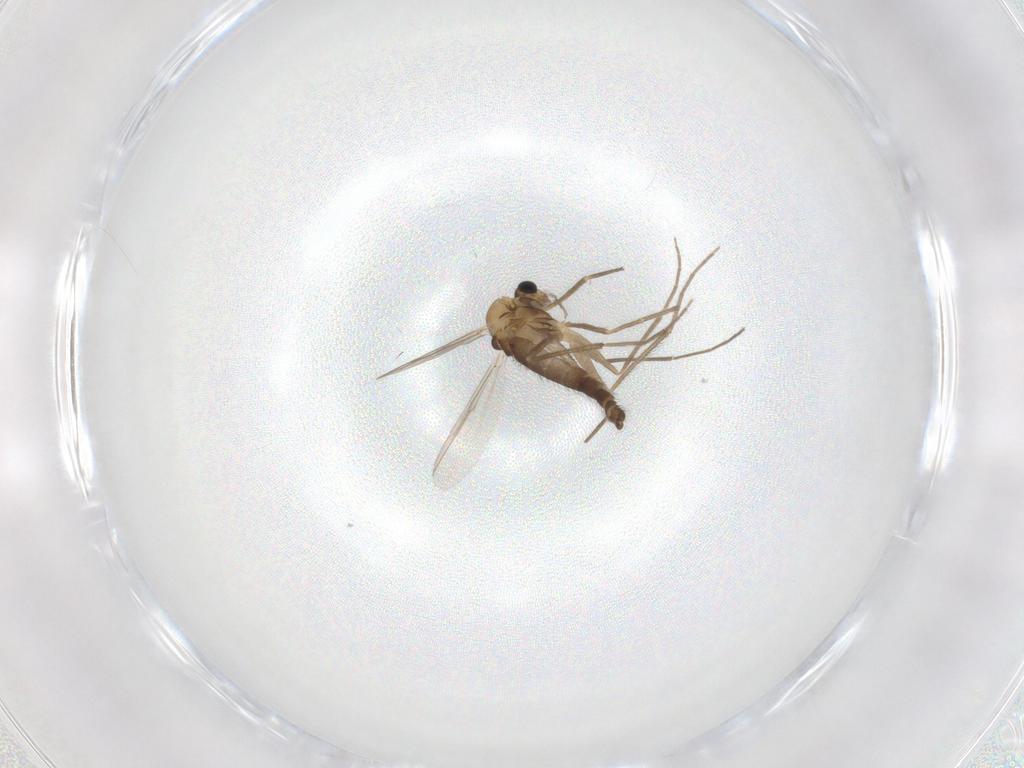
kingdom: Animalia
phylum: Arthropoda
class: Insecta
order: Diptera
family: Chironomidae
